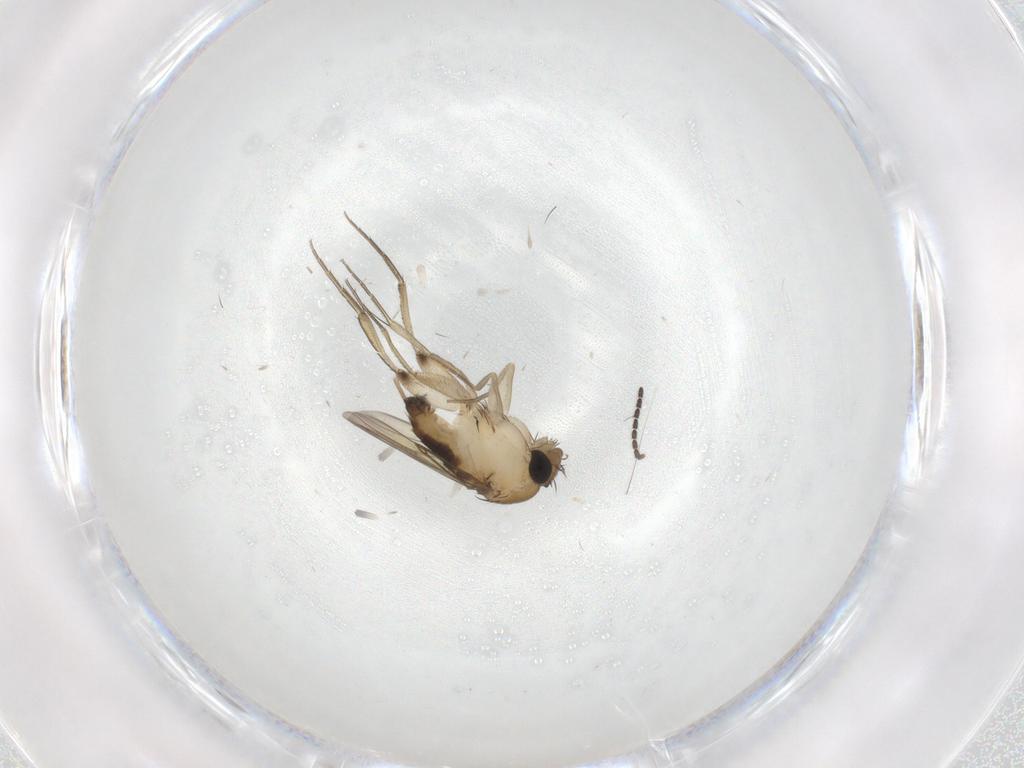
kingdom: Animalia
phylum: Arthropoda
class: Insecta
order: Diptera
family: Phoridae
